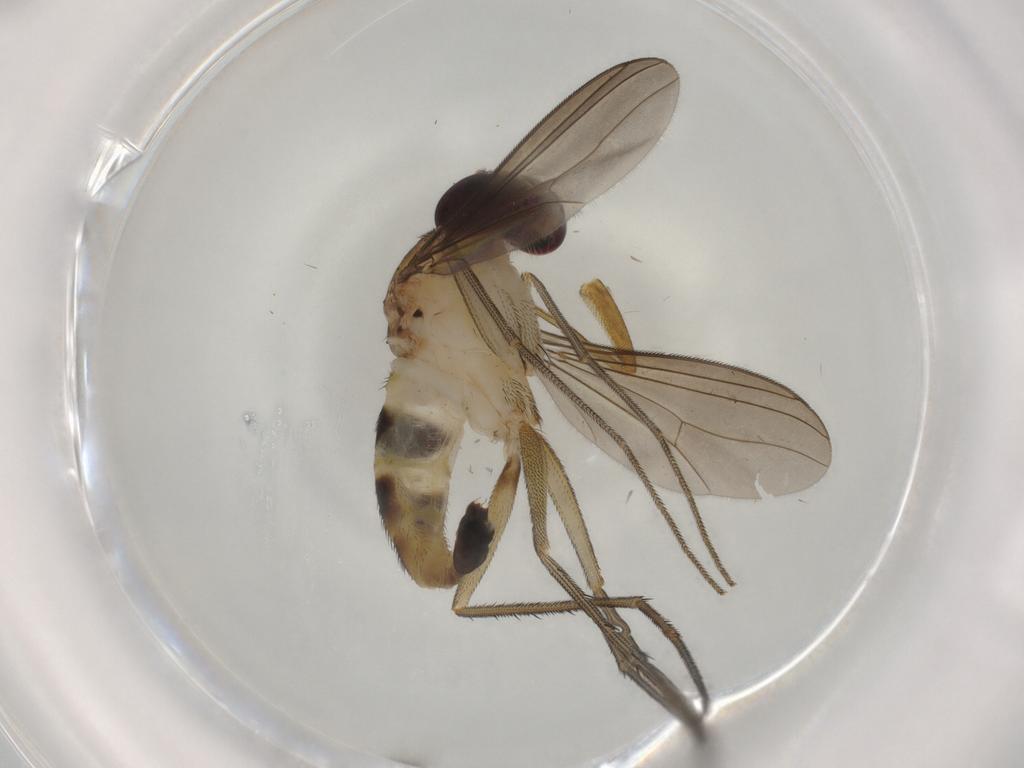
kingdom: Animalia
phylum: Arthropoda
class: Insecta
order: Diptera
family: Dolichopodidae
